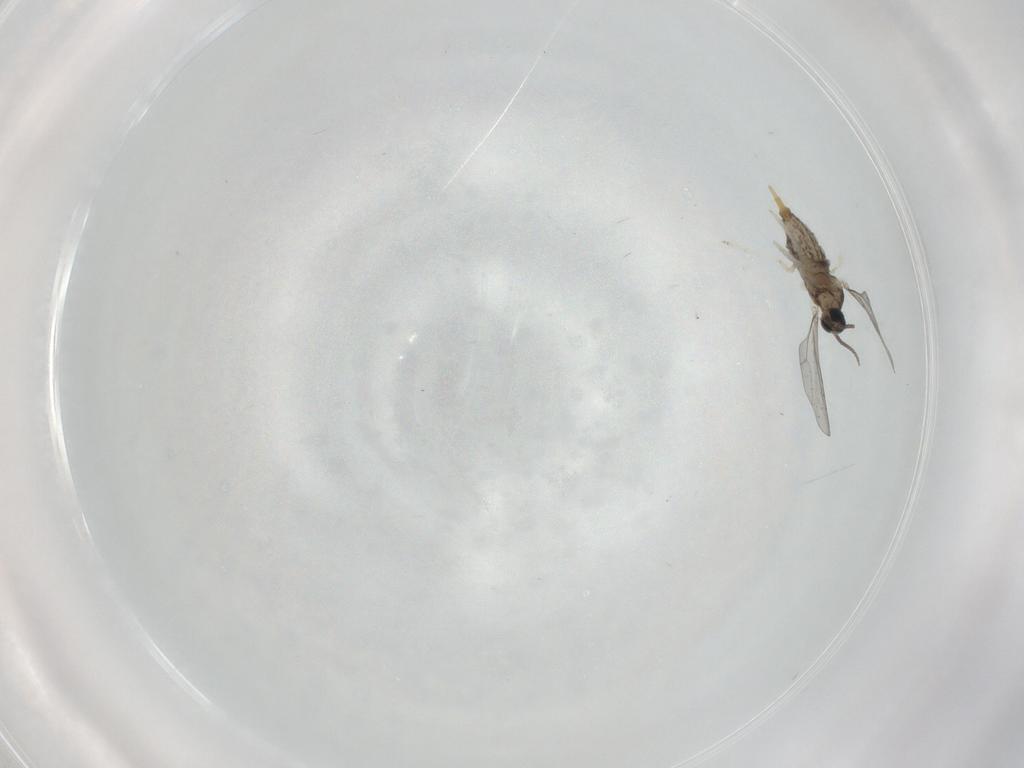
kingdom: Animalia
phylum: Arthropoda
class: Insecta
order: Diptera
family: Cecidomyiidae
